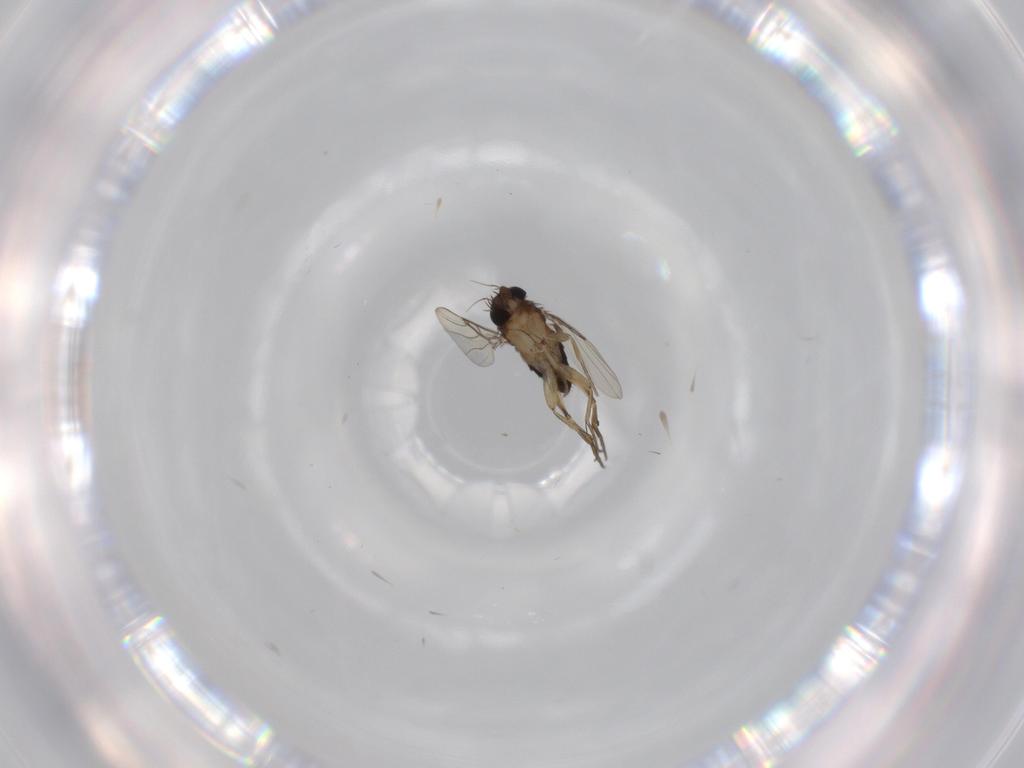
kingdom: Animalia
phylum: Arthropoda
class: Insecta
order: Diptera
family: Phoridae
